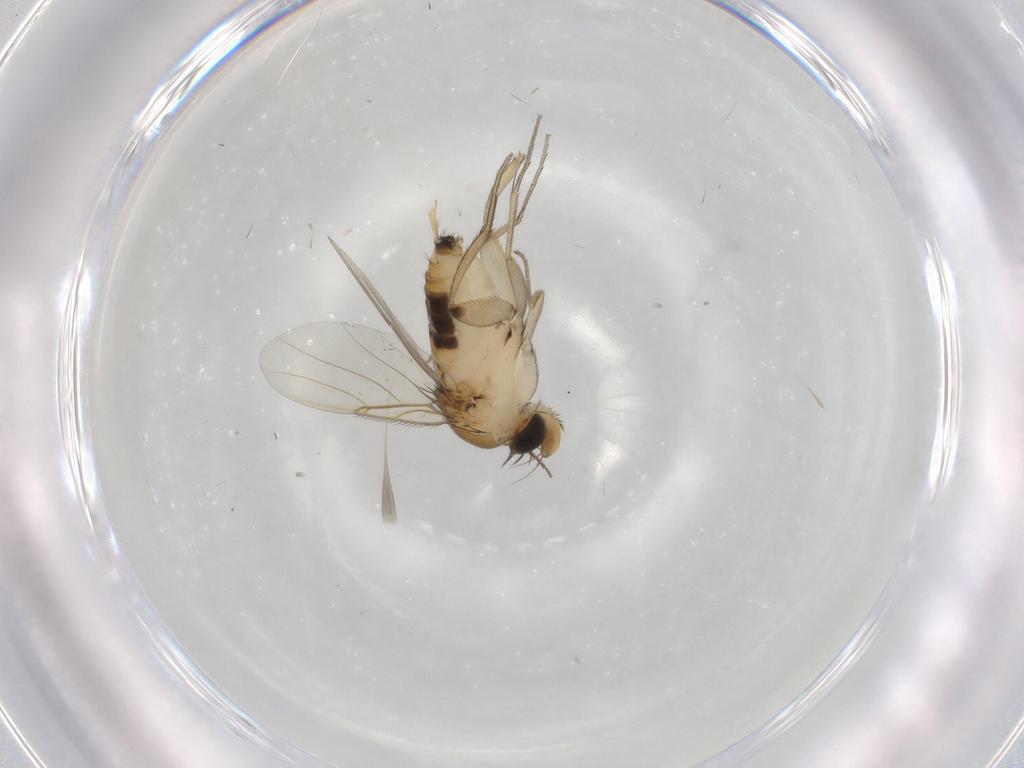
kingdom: Animalia
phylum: Arthropoda
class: Insecta
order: Diptera
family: Phoridae
